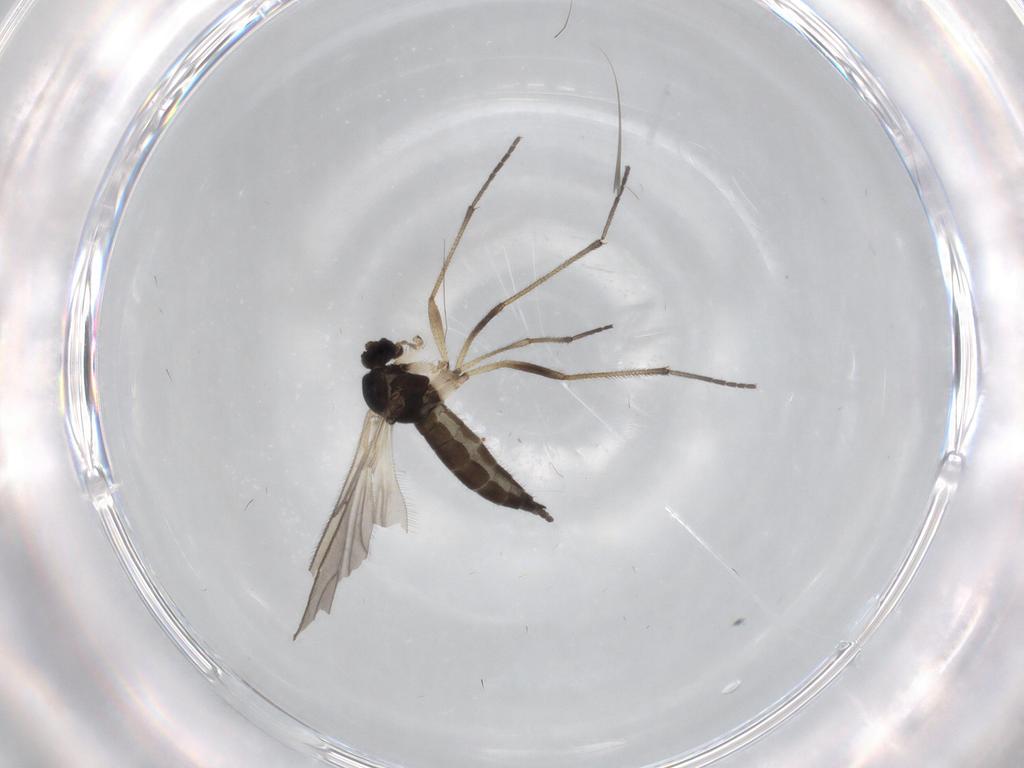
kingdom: Animalia
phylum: Arthropoda
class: Insecta
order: Diptera
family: Sciaridae
